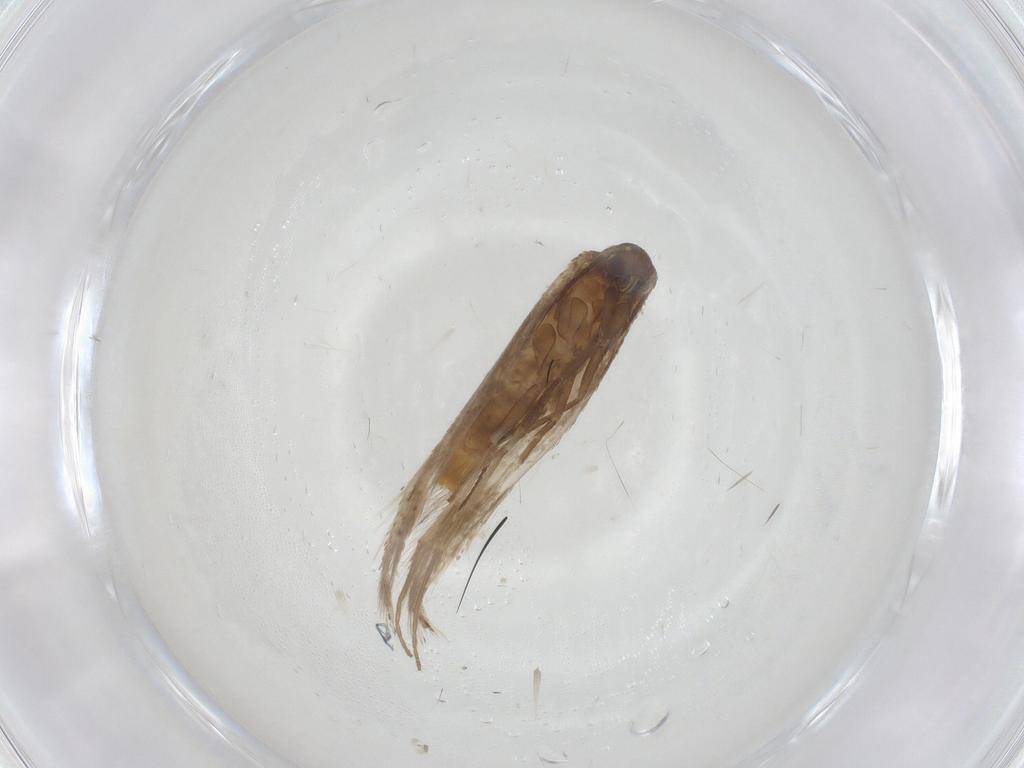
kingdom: Animalia
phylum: Arthropoda
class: Insecta
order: Lepidoptera
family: Douglasiidae
